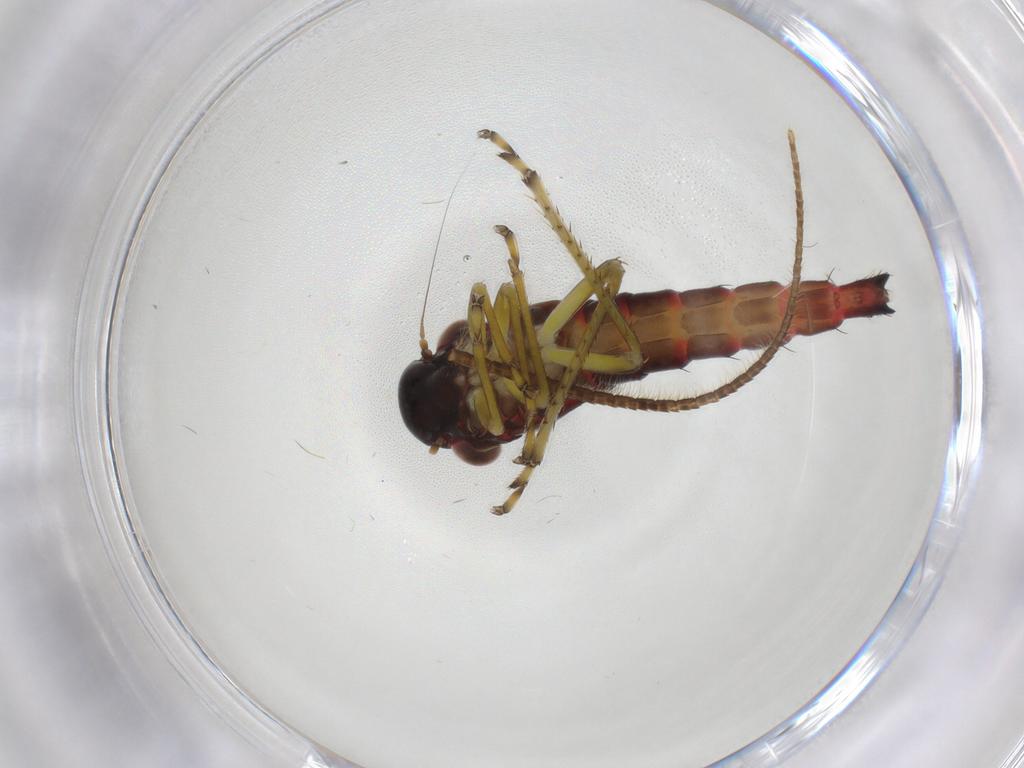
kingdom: Animalia
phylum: Arthropoda
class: Insecta
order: Hemiptera
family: Cicadellidae
